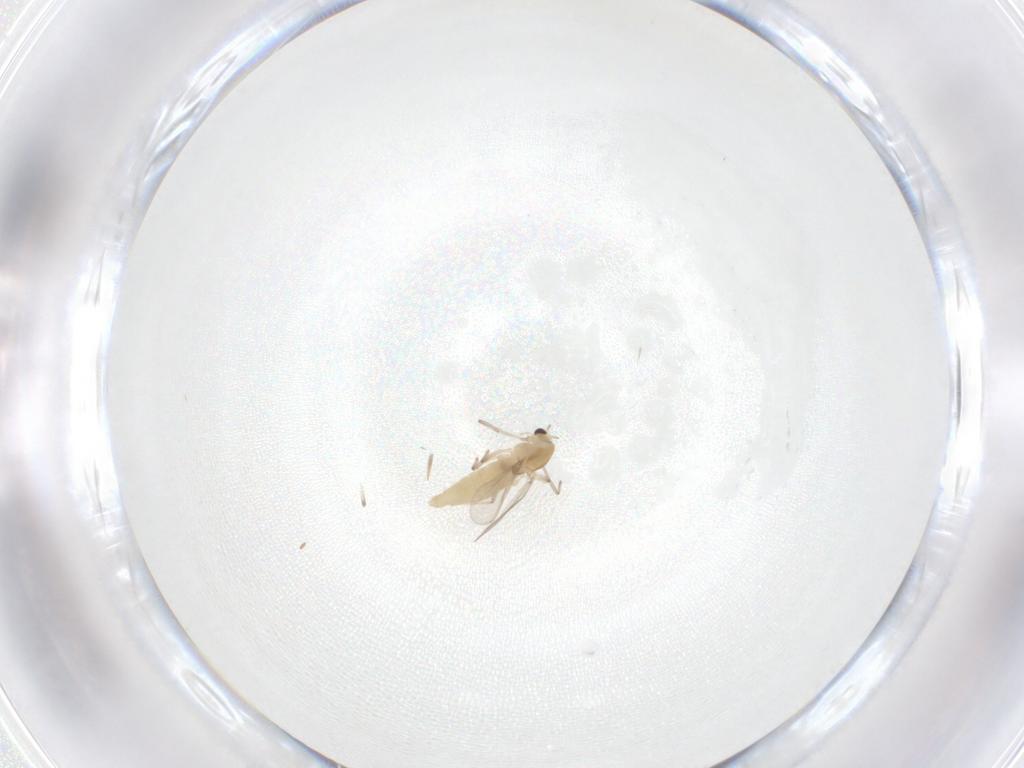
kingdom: Animalia
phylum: Arthropoda
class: Insecta
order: Diptera
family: Chironomidae
